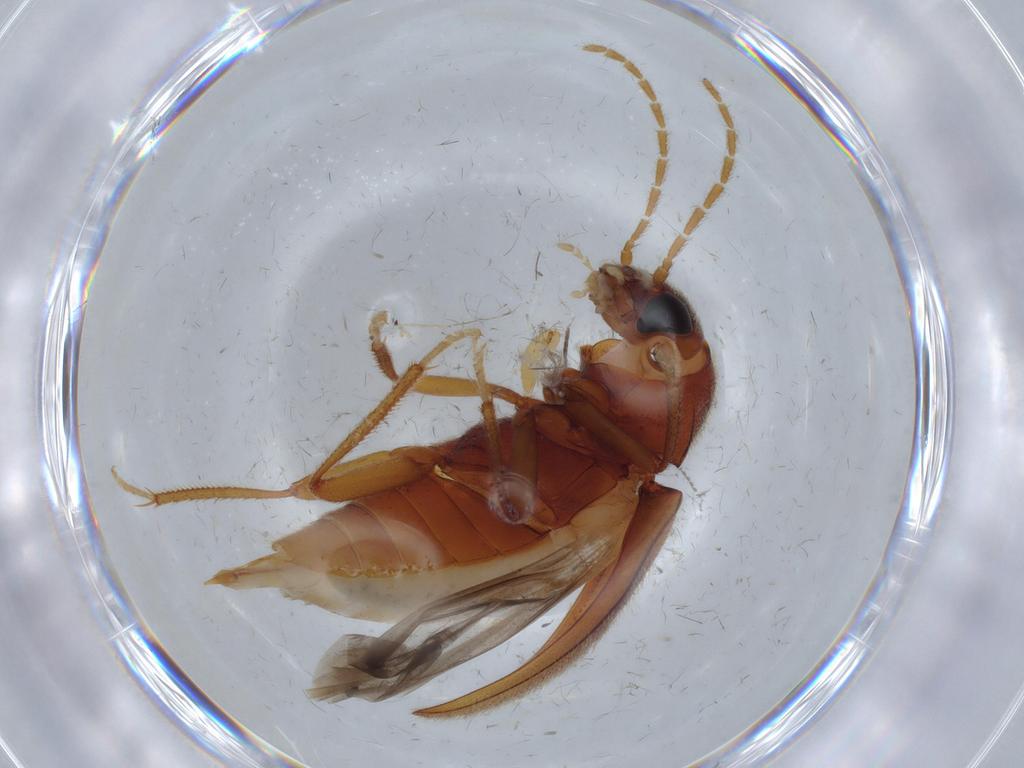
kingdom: Animalia
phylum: Arthropoda
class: Insecta
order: Coleoptera
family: Ptilodactylidae
